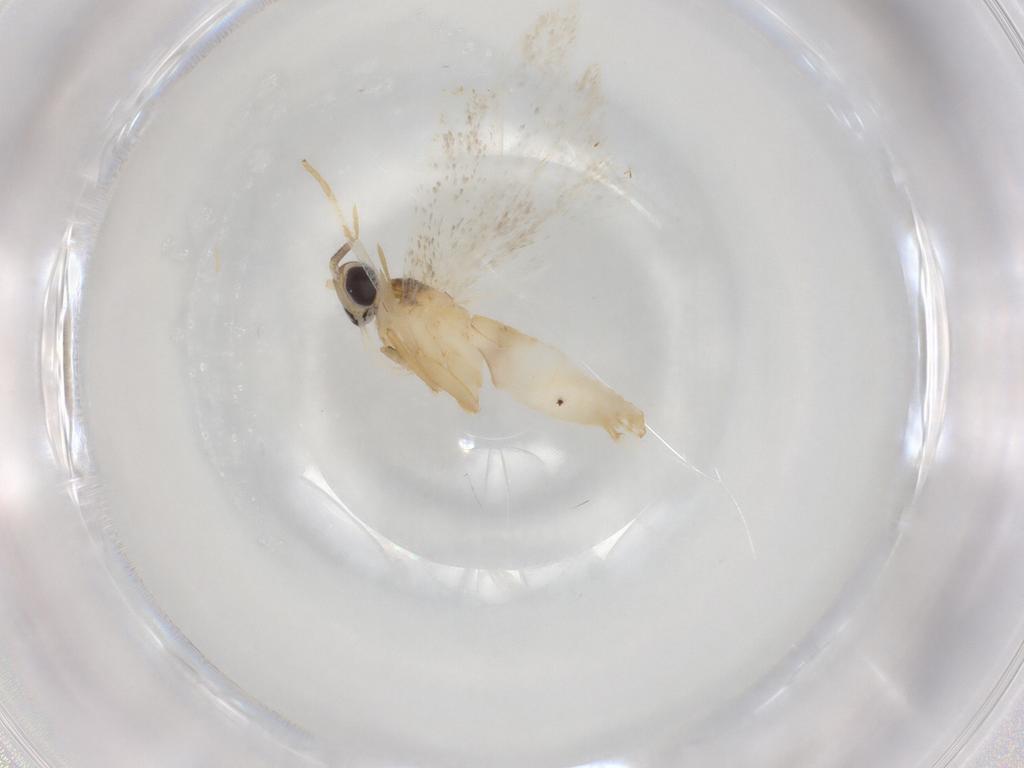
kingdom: Animalia
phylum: Arthropoda
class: Insecta
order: Lepidoptera
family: Autostichidae
